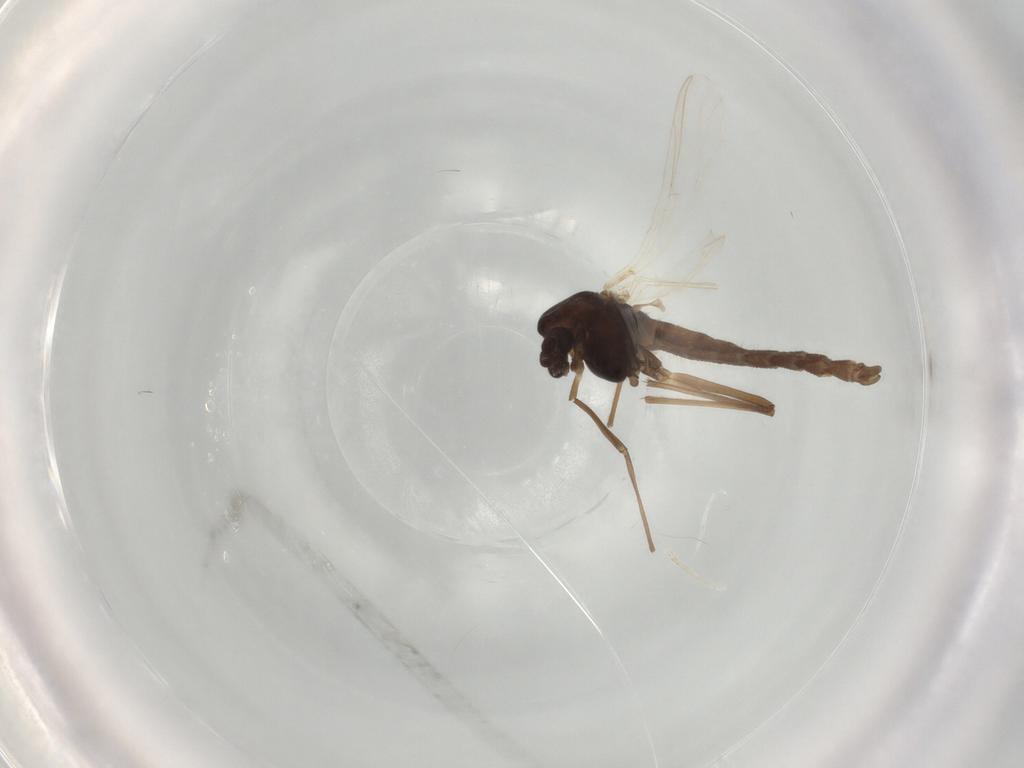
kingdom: Animalia
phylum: Arthropoda
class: Insecta
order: Diptera
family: Chironomidae
